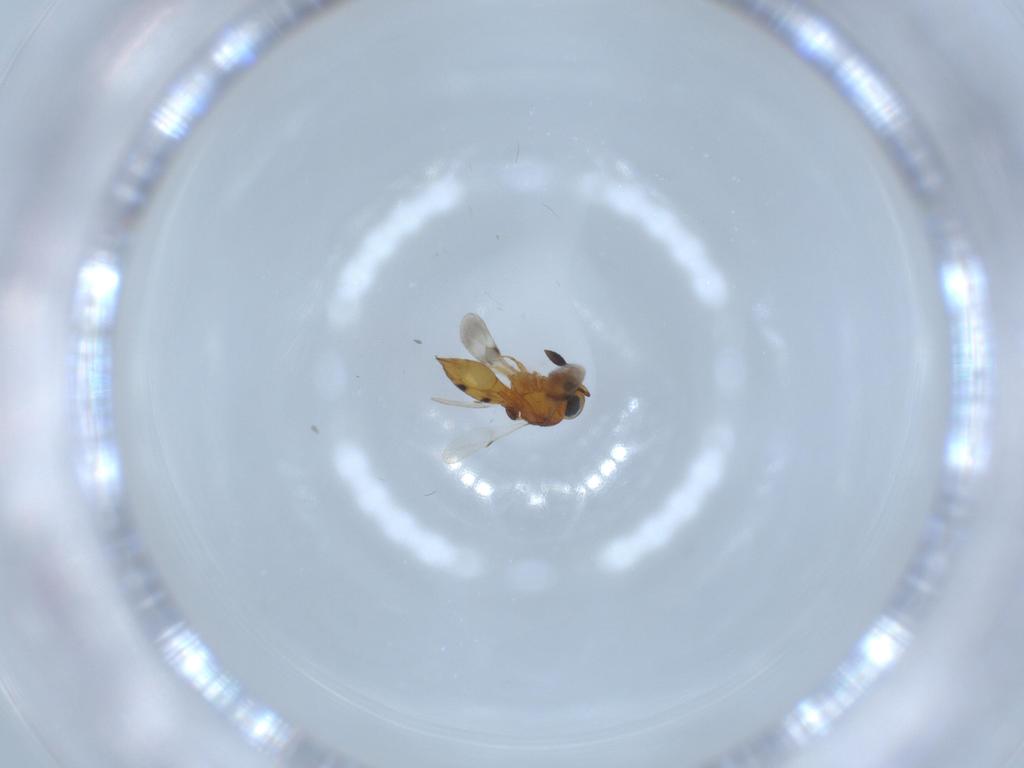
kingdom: Animalia
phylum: Arthropoda
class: Insecta
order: Hymenoptera
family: Scelionidae
